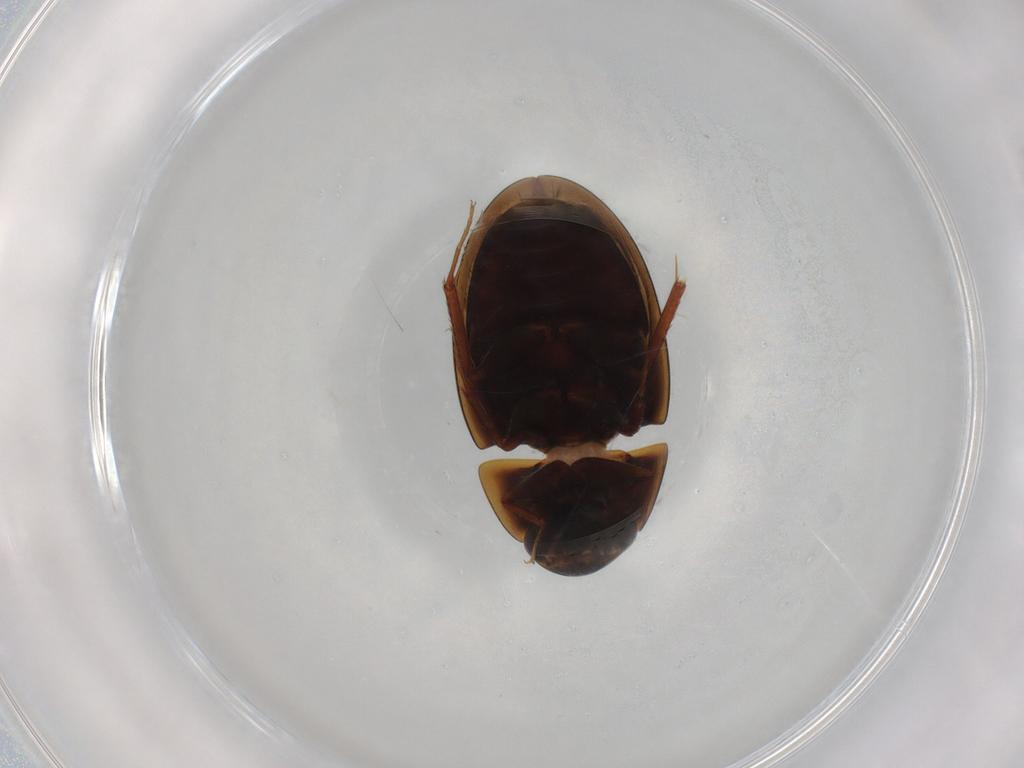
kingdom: Animalia
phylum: Arthropoda
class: Insecta
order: Coleoptera
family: Hydrophilidae
